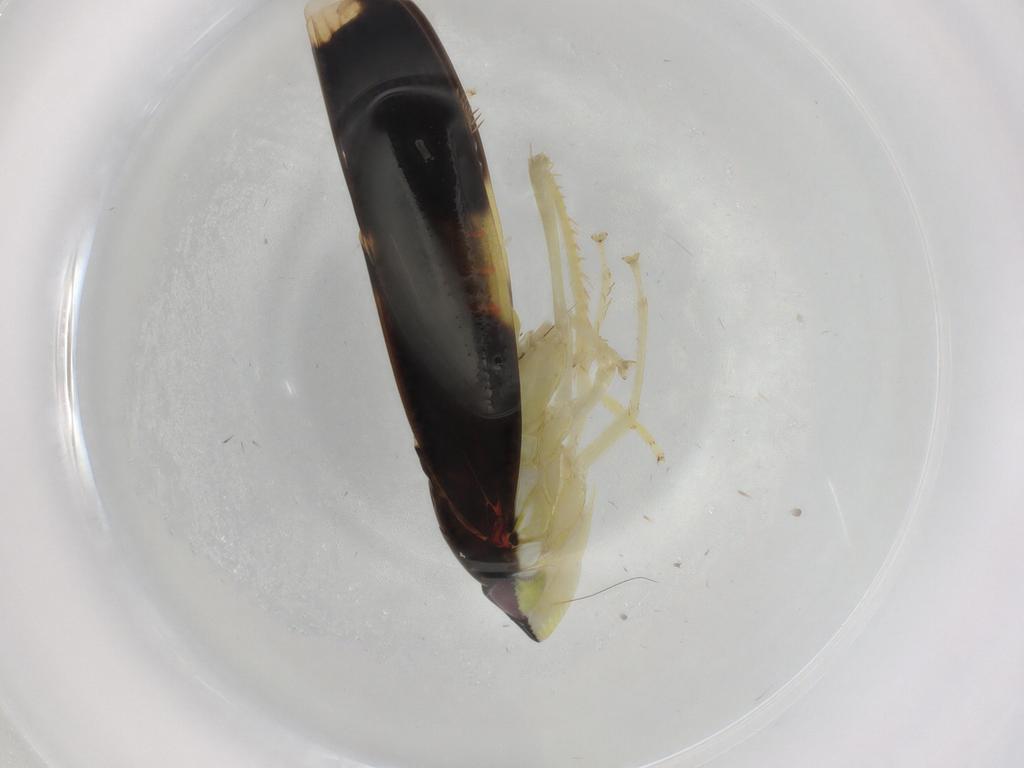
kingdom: Animalia
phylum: Arthropoda
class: Insecta
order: Hemiptera
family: Cicadellidae
